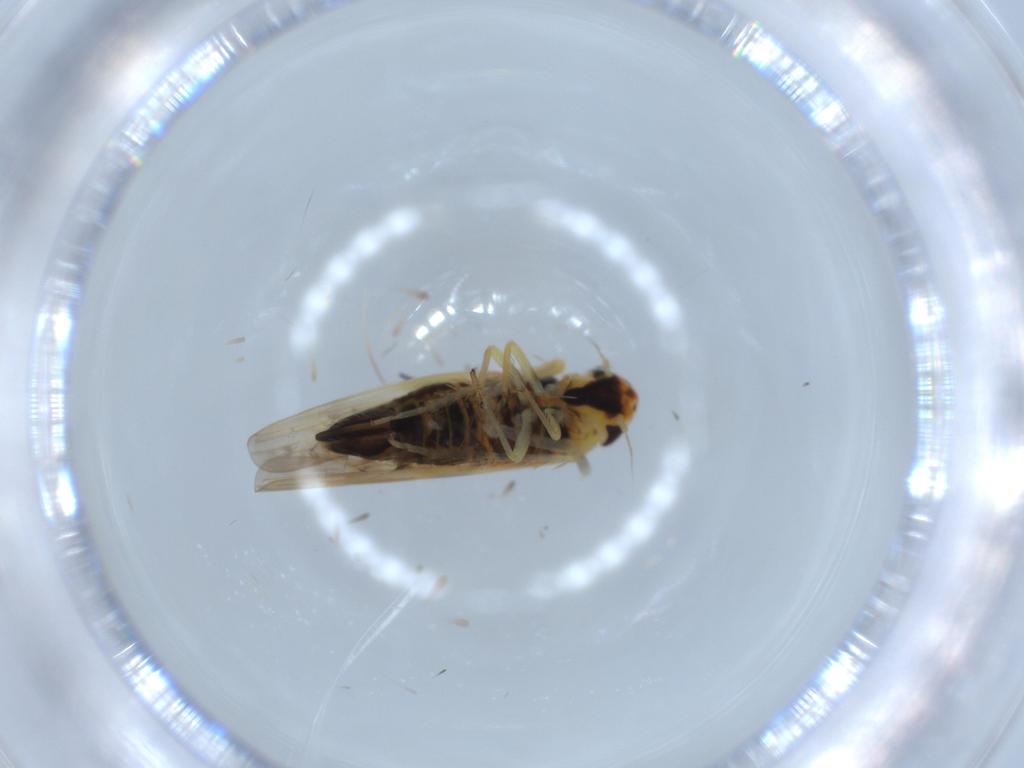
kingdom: Animalia
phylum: Arthropoda
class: Insecta
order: Hemiptera
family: Cicadellidae
